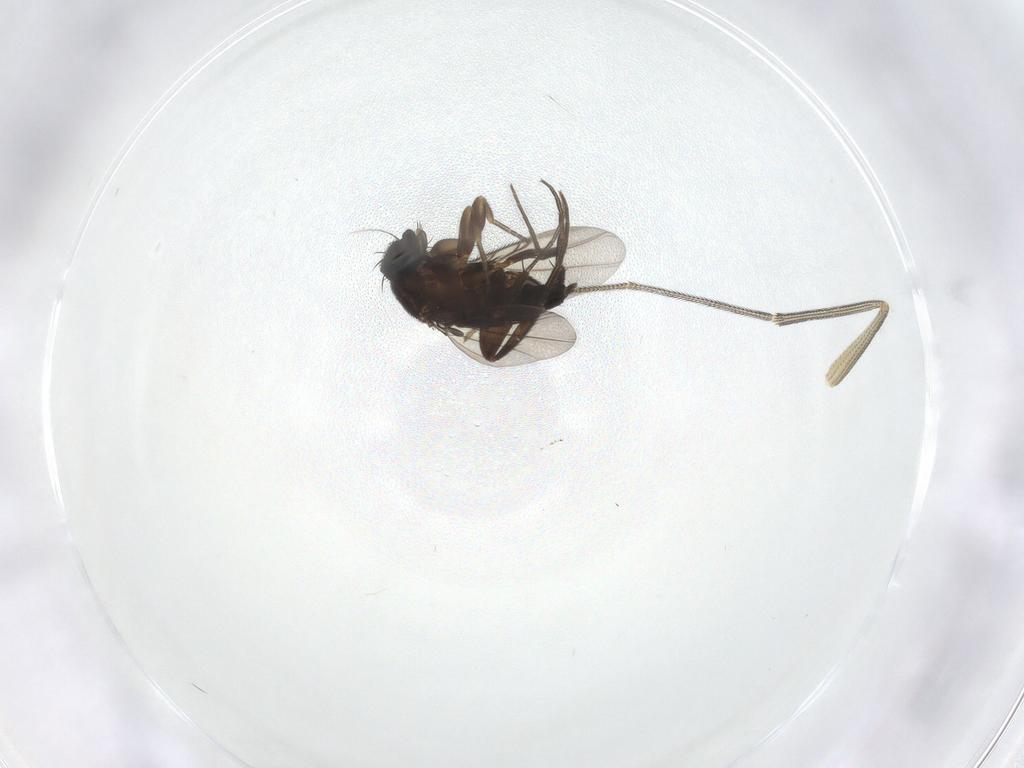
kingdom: Animalia
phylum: Arthropoda
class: Insecta
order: Diptera
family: Phoridae
